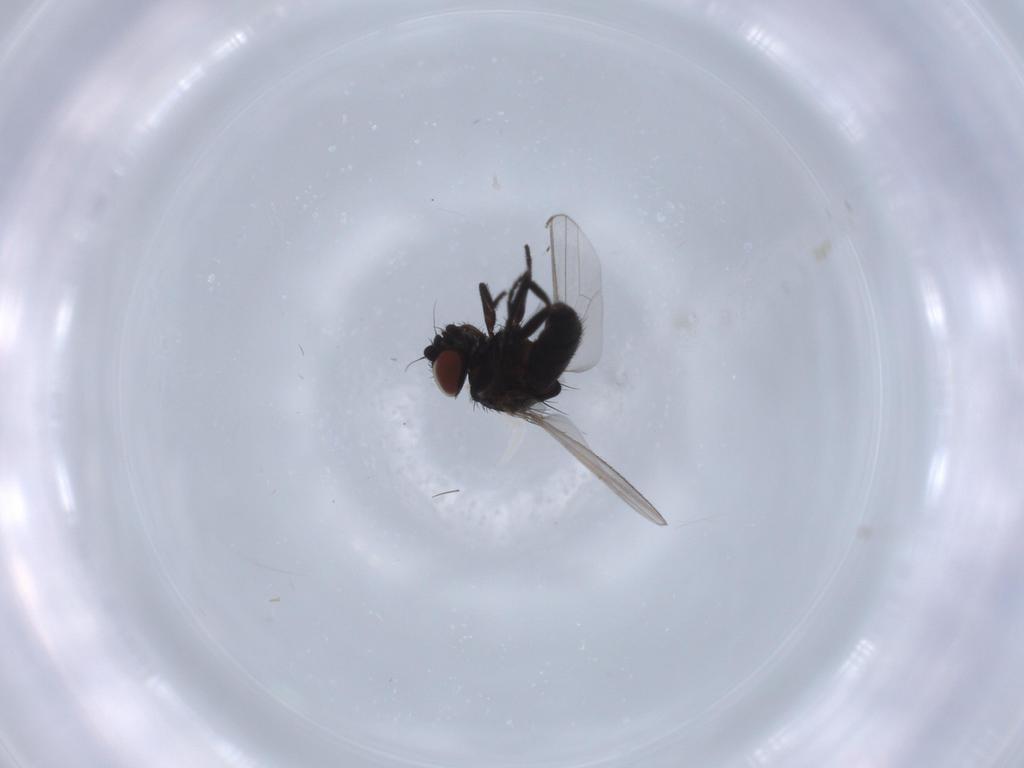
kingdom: Animalia
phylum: Arthropoda
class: Insecta
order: Diptera
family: Milichiidae
